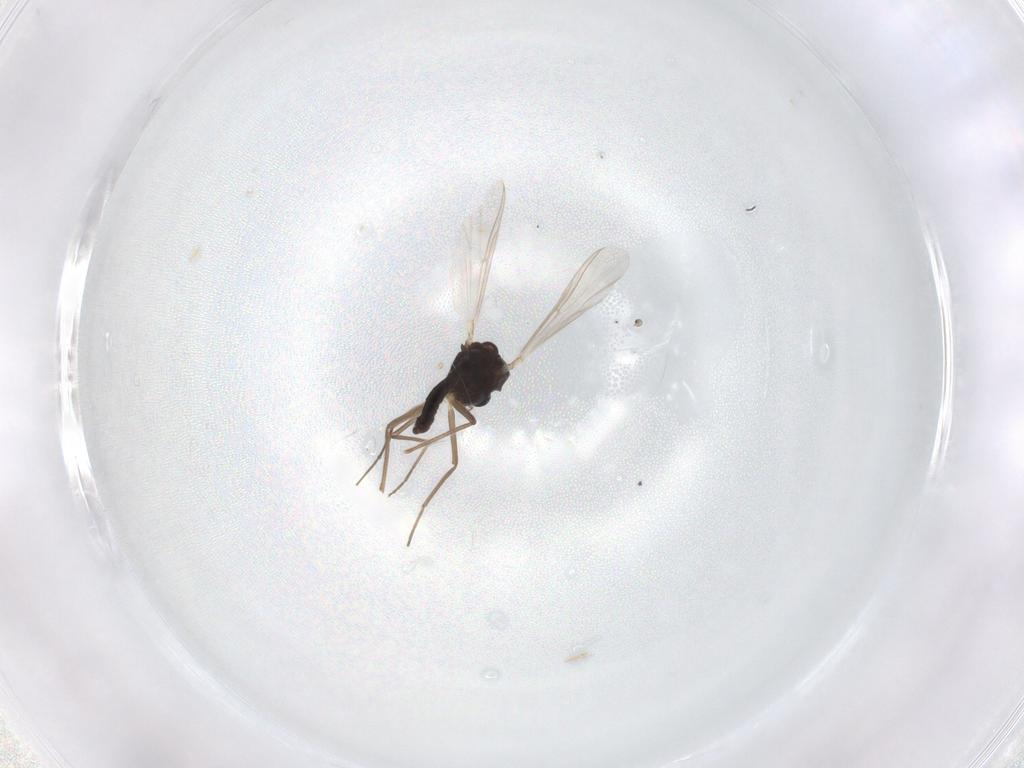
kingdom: Animalia
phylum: Arthropoda
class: Insecta
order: Diptera
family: Chironomidae
